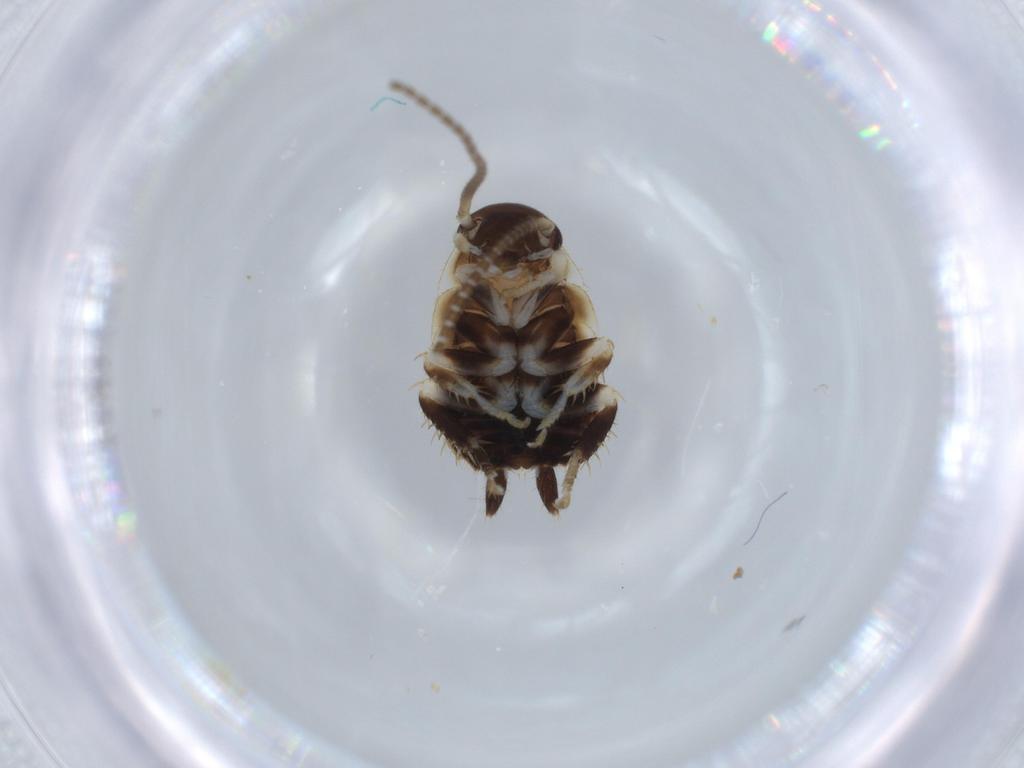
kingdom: Animalia
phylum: Arthropoda
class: Insecta
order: Blattodea
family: Ectobiidae
